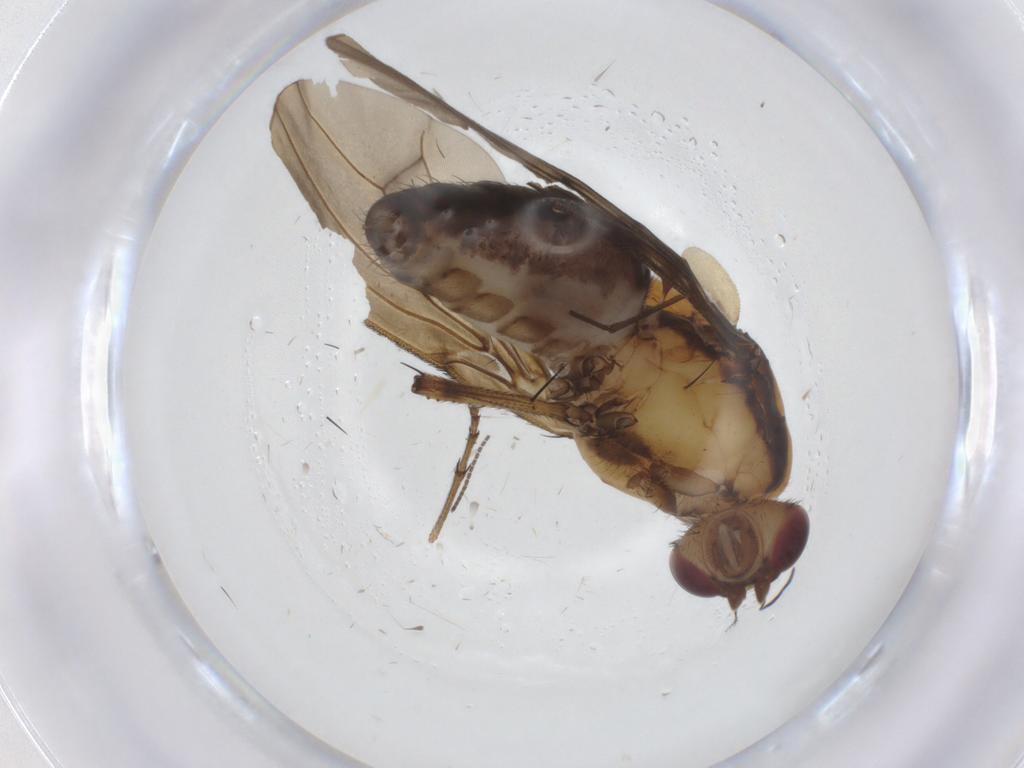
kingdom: Animalia
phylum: Arthropoda
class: Insecta
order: Diptera
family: Heleomyzidae
